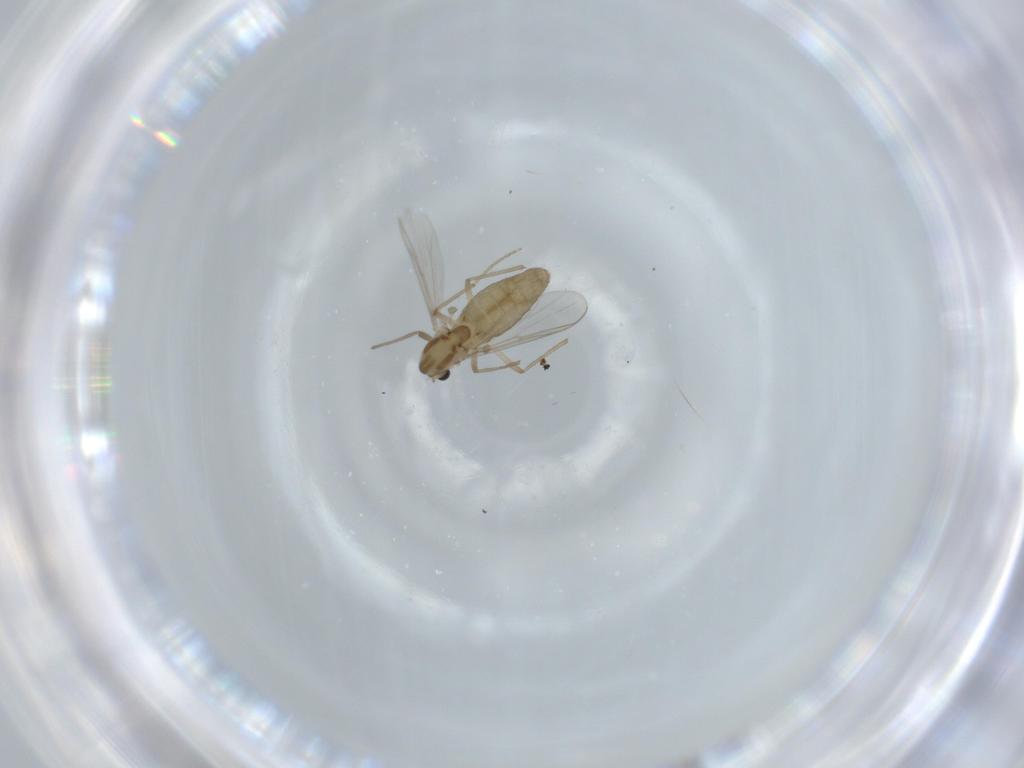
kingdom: Animalia
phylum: Arthropoda
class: Insecta
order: Diptera
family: Chironomidae
